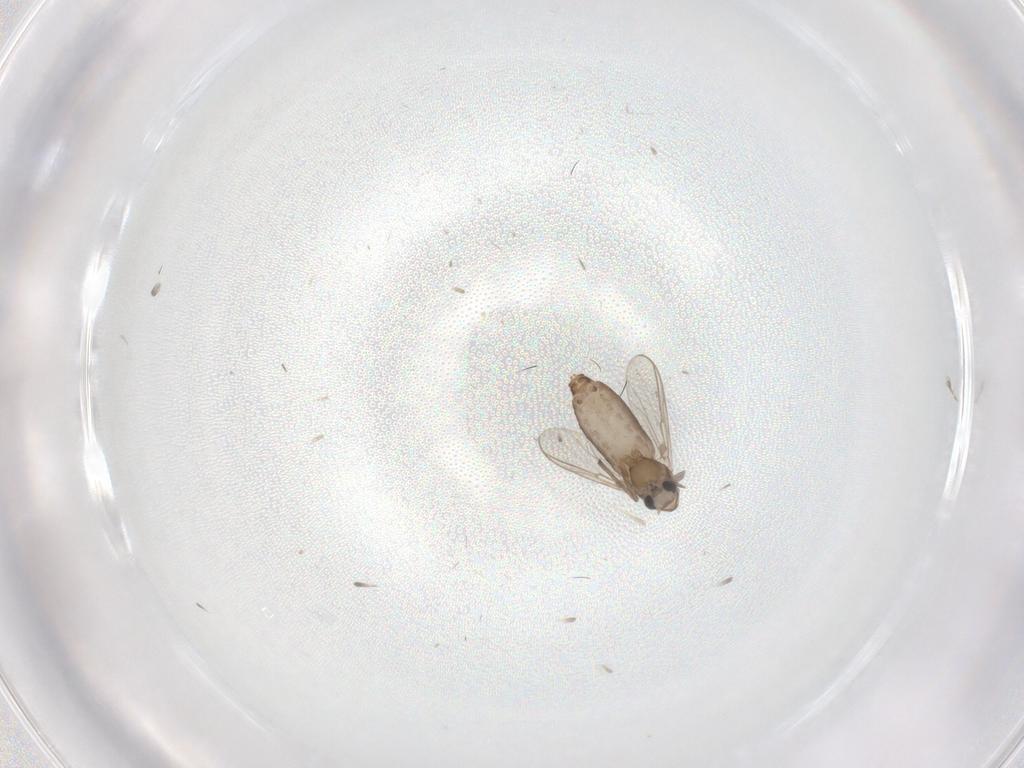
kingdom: Animalia
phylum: Arthropoda
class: Insecta
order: Diptera
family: Chironomidae
